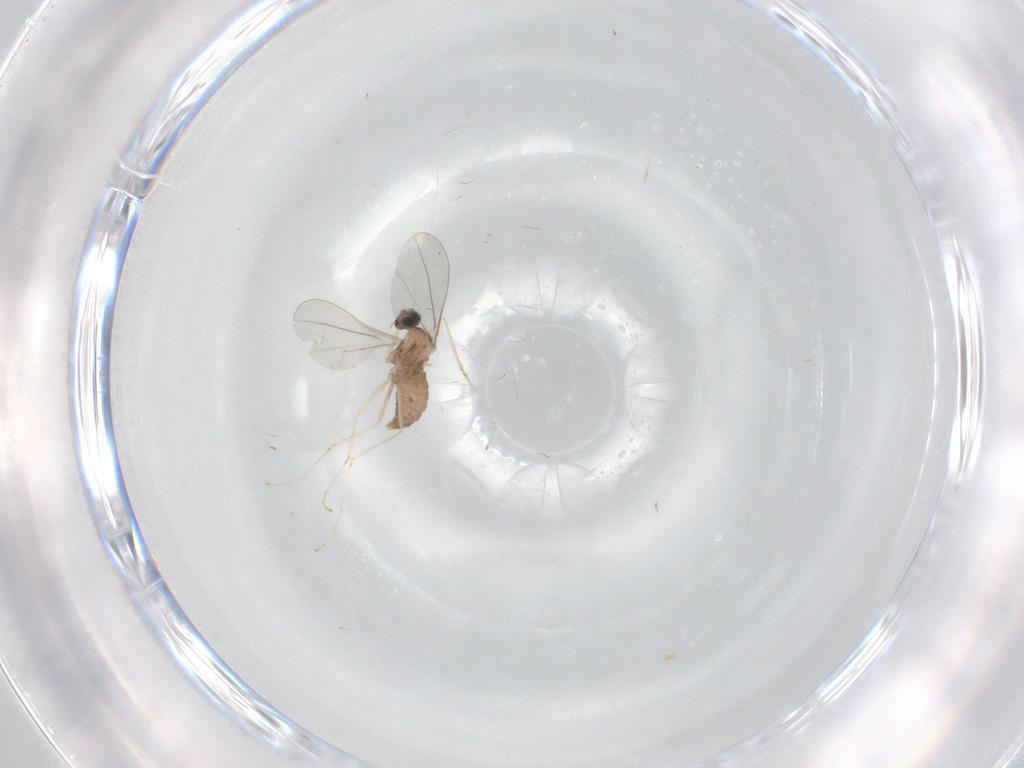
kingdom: Animalia
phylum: Arthropoda
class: Insecta
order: Diptera
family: Cecidomyiidae
